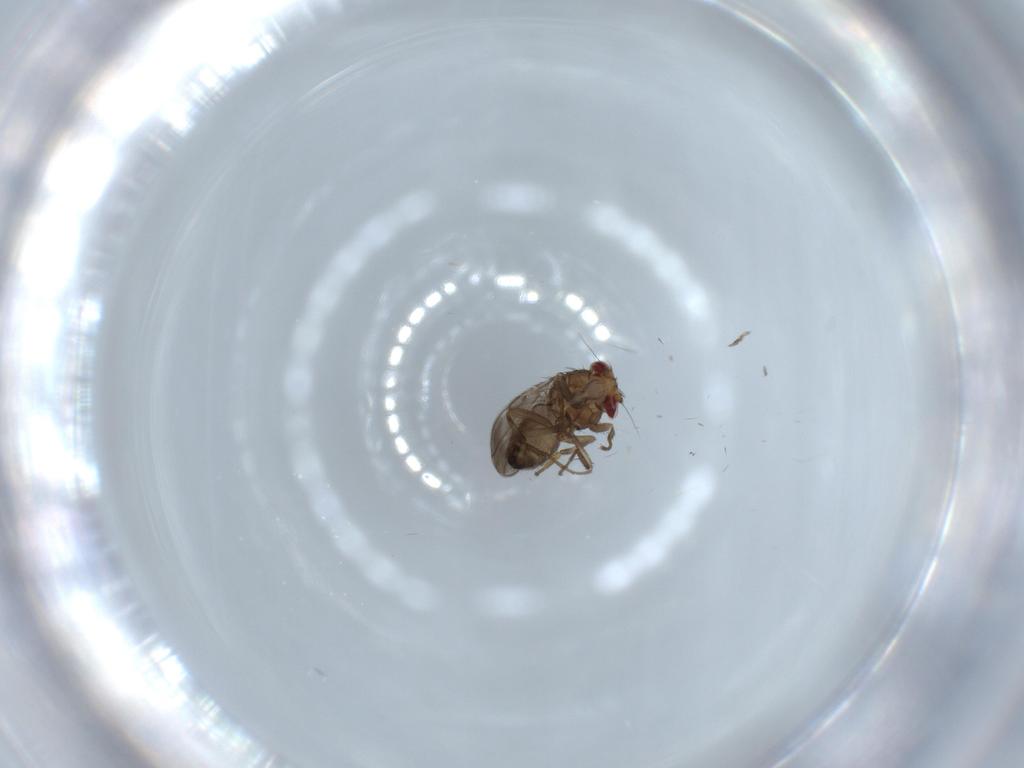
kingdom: Animalia
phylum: Arthropoda
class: Insecta
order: Diptera
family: Sphaeroceridae
